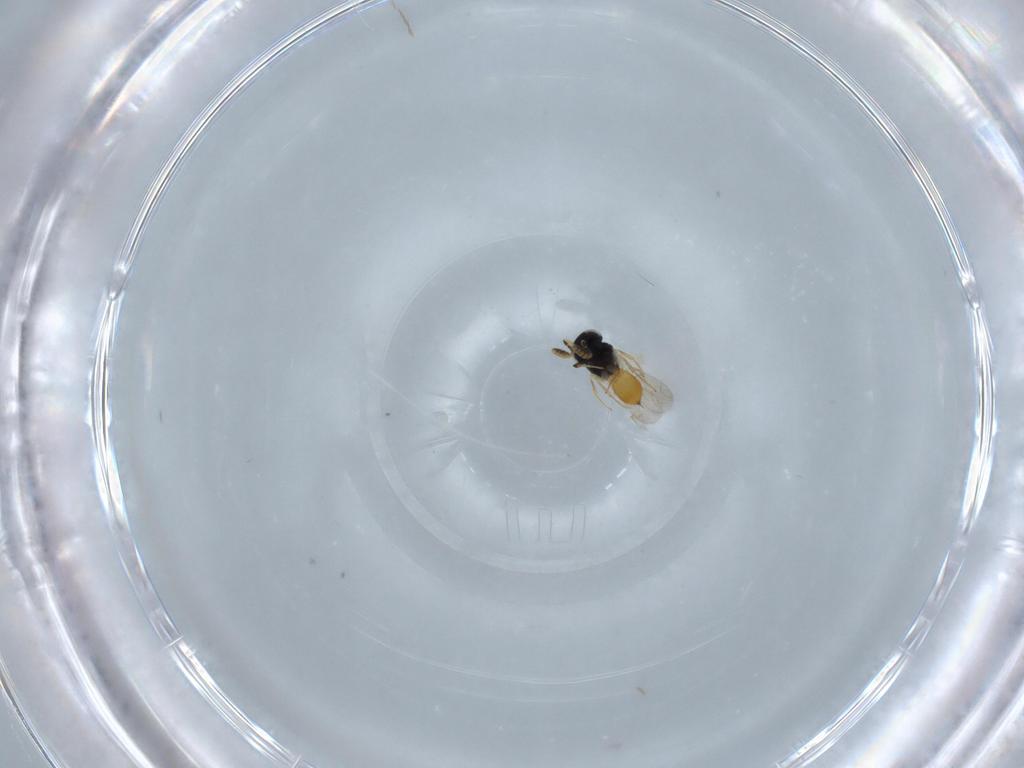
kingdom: Animalia
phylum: Arthropoda
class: Insecta
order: Hymenoptera
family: Scelionidae
